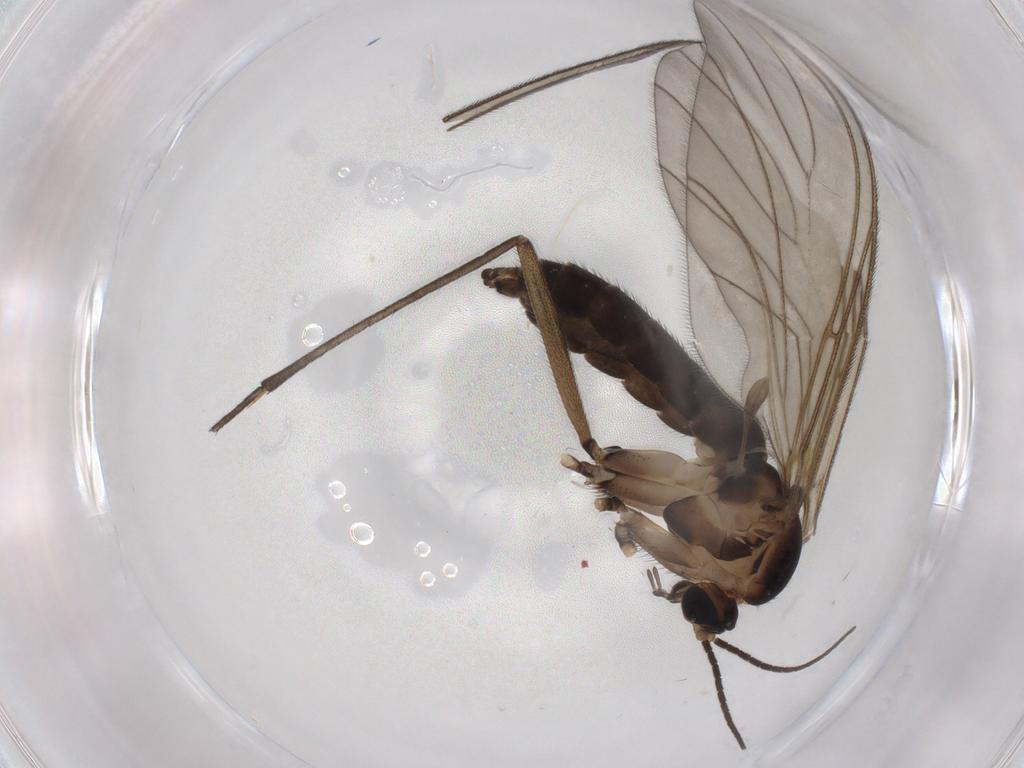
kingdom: Animalia
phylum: Arthropoda
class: Insecta
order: Diptera
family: Sciaridae
